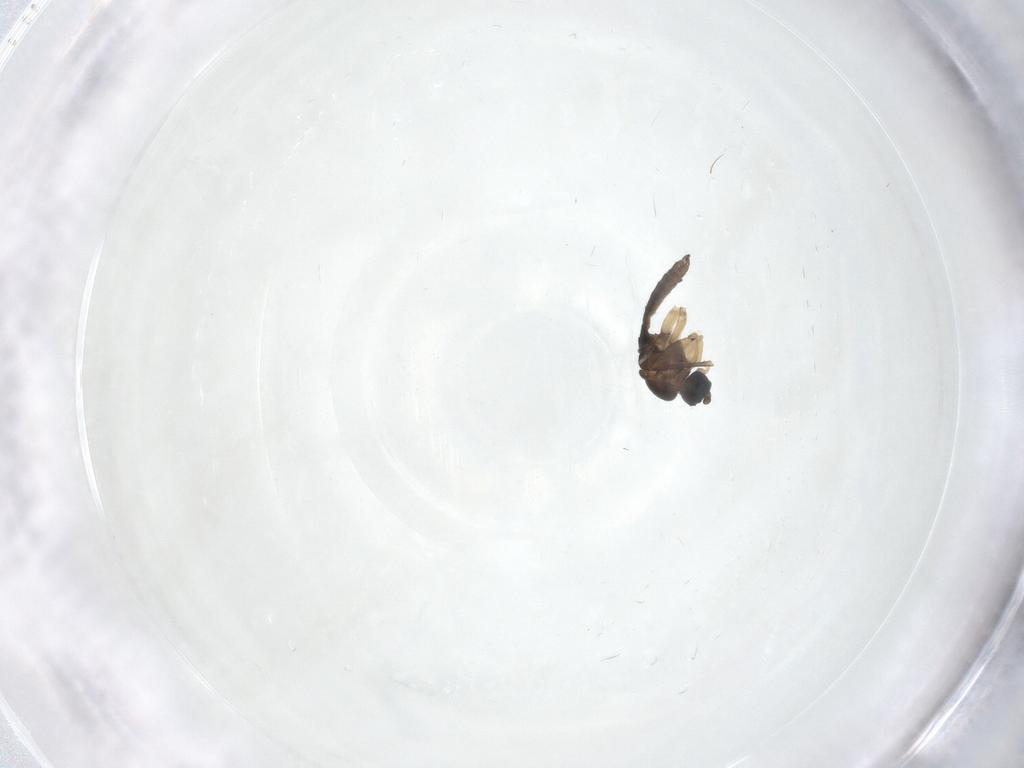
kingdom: Animalia
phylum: Arthropoda
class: Insecta
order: Diptera
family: Sciaridae
